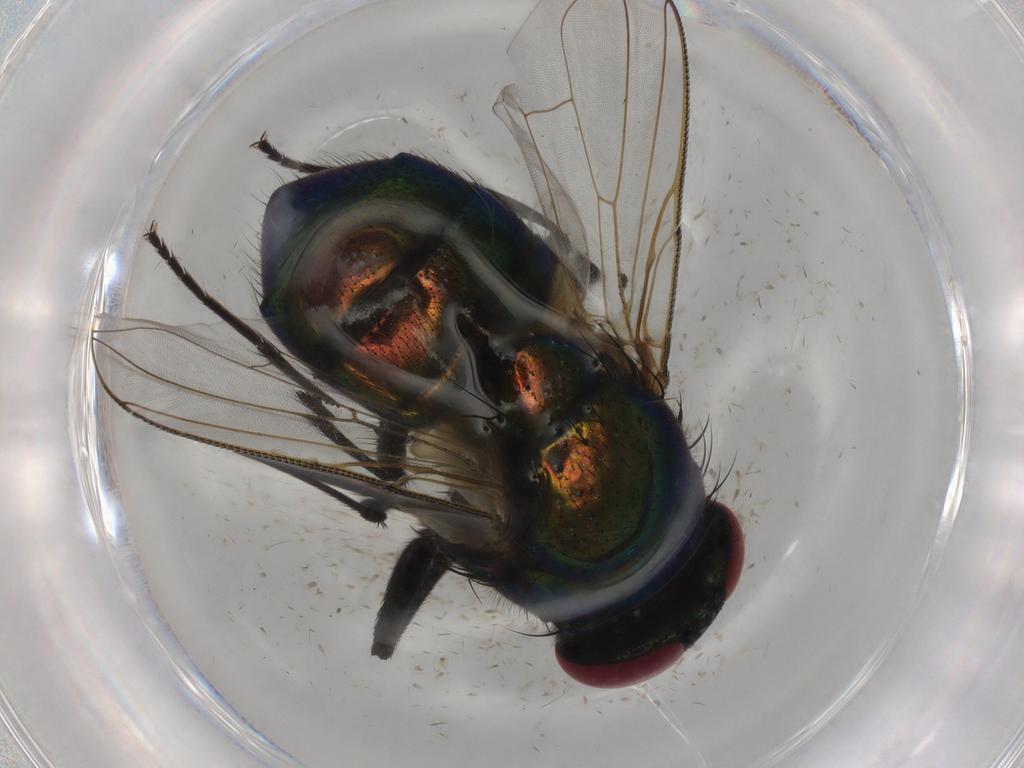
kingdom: Animalia
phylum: Arthropoda
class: Insecta
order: Diptera
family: Muscidae
